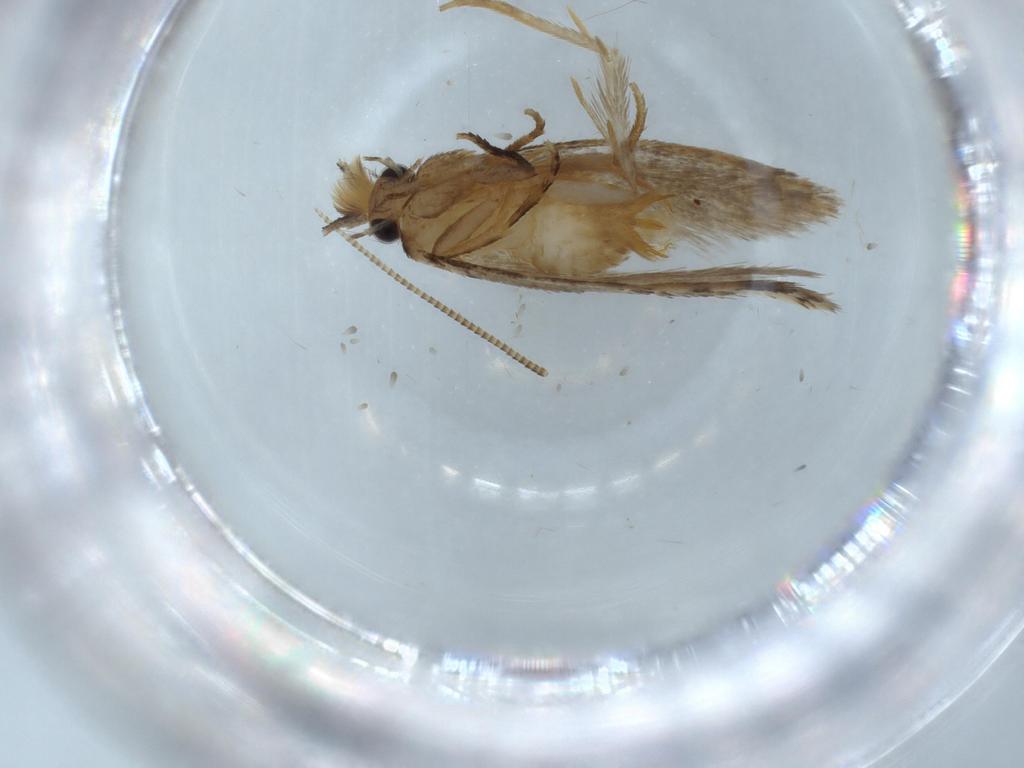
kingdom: Animalia
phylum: Arthropoda
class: Insecta
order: Lepidoptera
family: Tineidae
